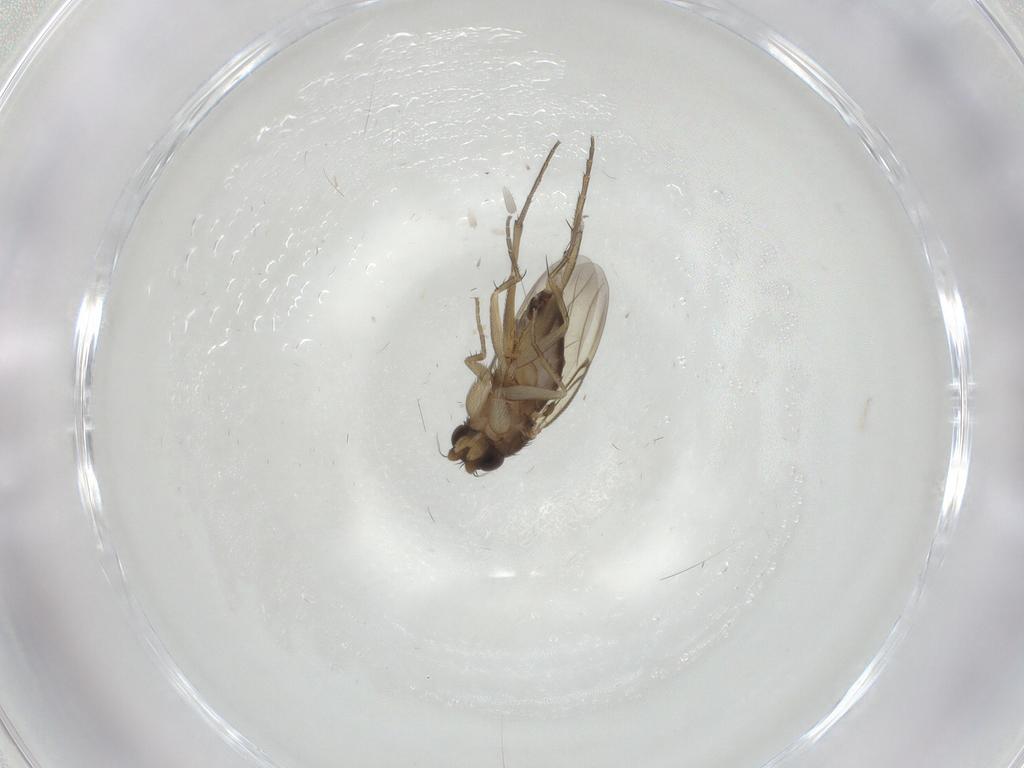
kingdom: Animalia
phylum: Arthropoda
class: Insecta
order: Diptera
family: Phoridae
